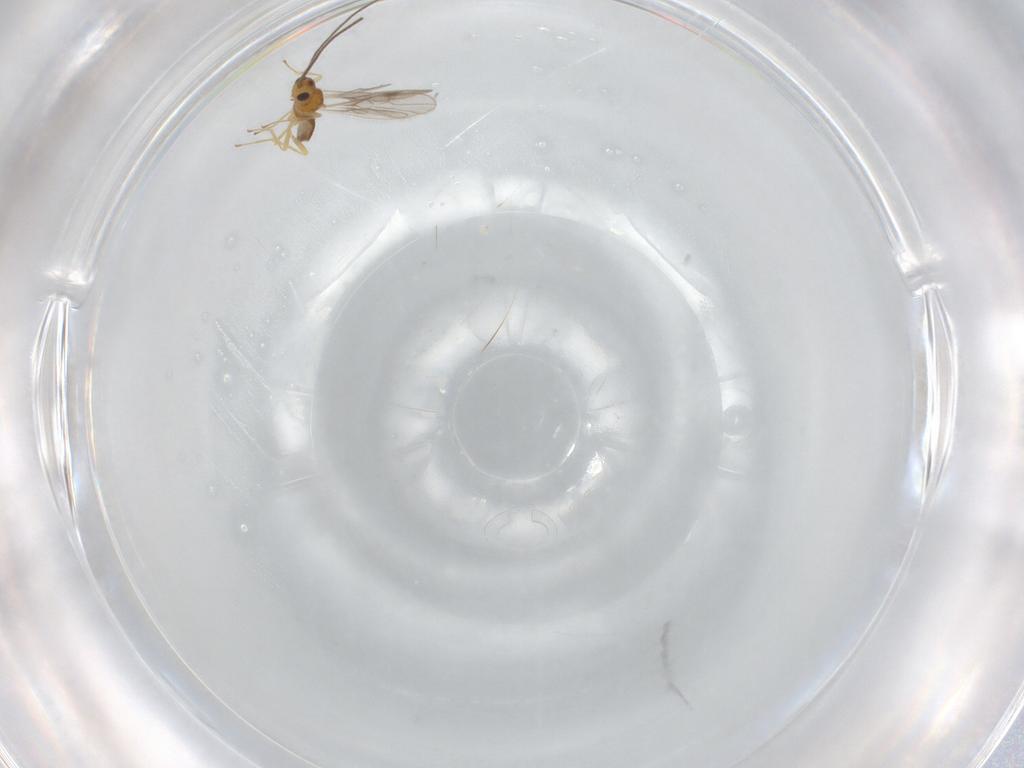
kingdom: Animalia
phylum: Arthropoda
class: Insecta
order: Hymenoptera
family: Braconidae
